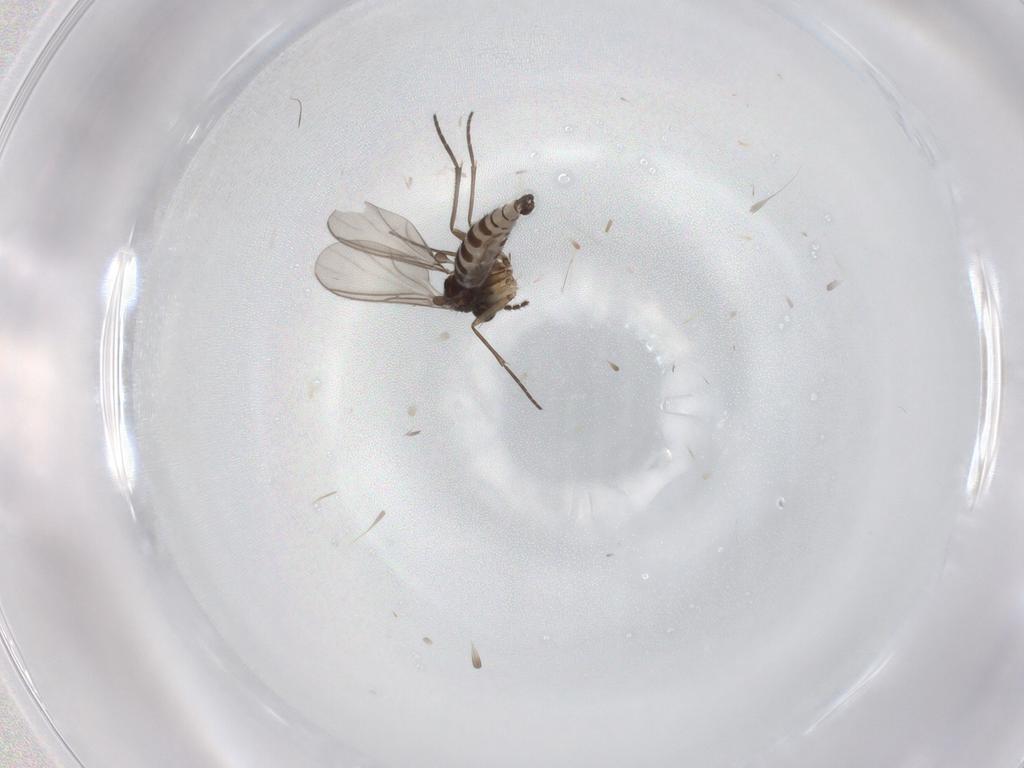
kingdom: Animalia
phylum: Arthropoda
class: Insecta
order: Diptera
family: Sciaridae
